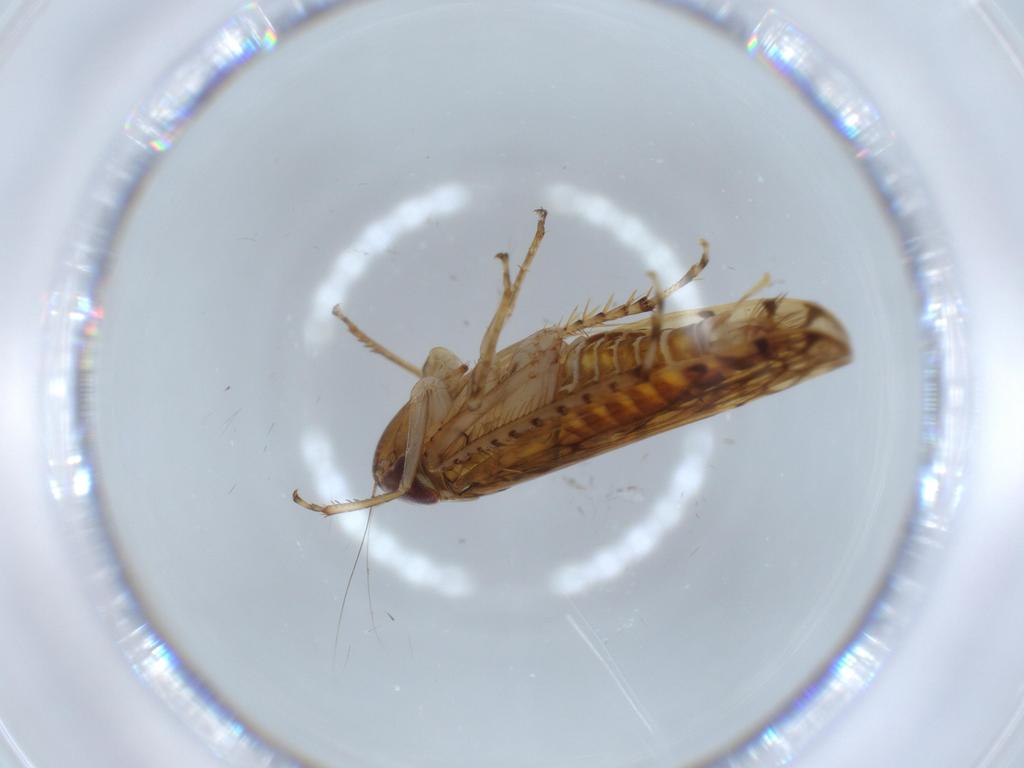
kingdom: Animalia
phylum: Arthropoda
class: Insecta
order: Hemiptera
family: Cicadellidae
